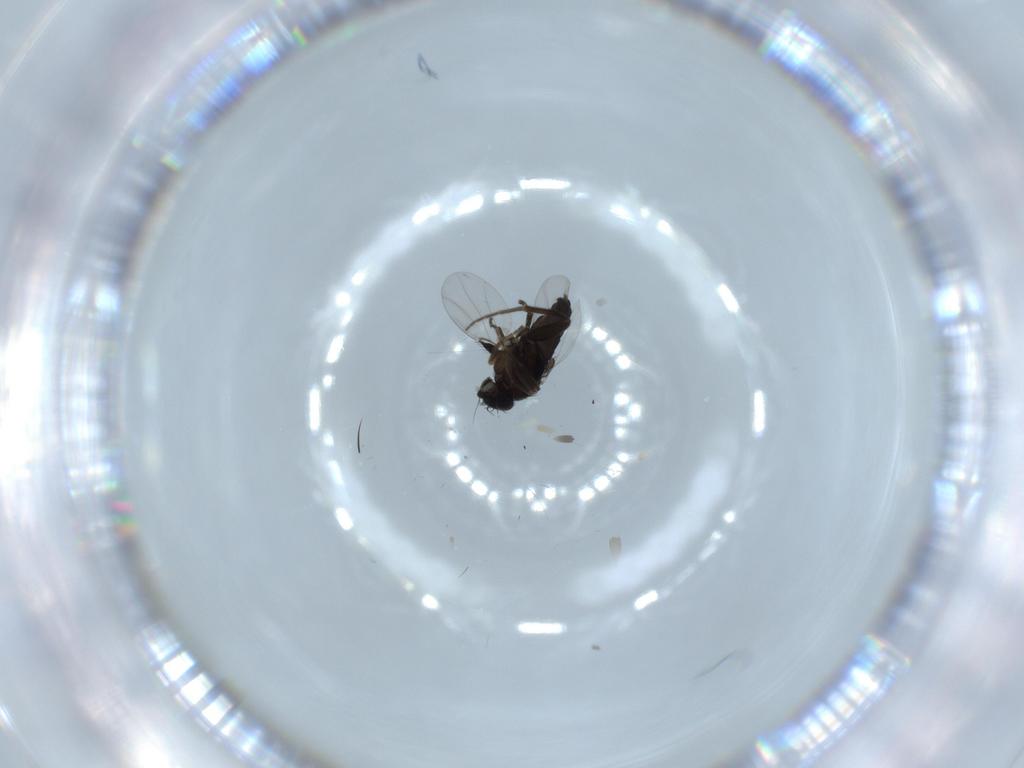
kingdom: Animalia
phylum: Arthropoda
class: Insecta
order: Diptera
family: Phoridae
